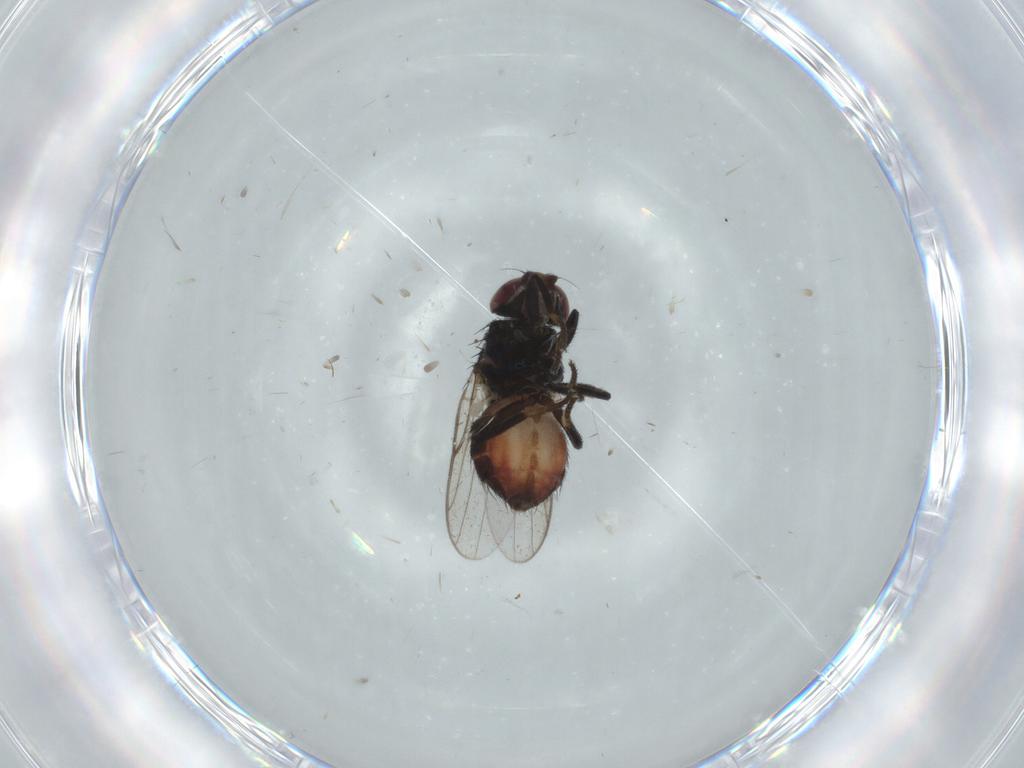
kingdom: Animalia
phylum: Arthropoda
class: Insecta
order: Diptera
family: Chloropidae
